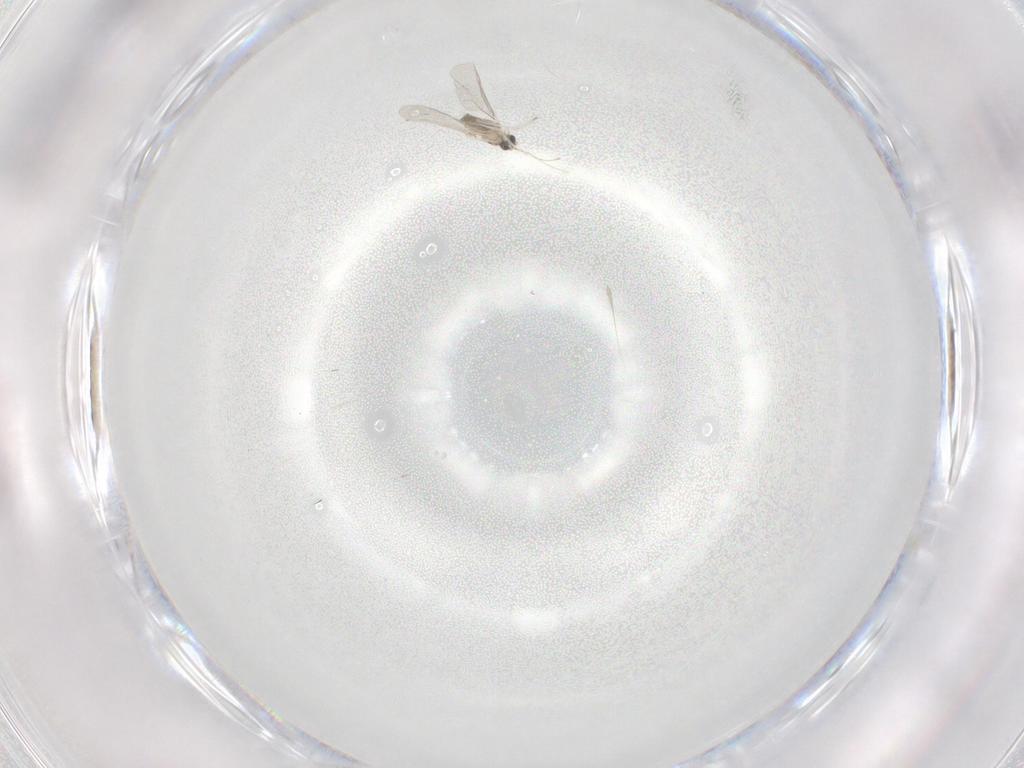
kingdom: Animalia
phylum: Arthropoda
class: Insecta
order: Diptera
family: Cecidomyiidae
